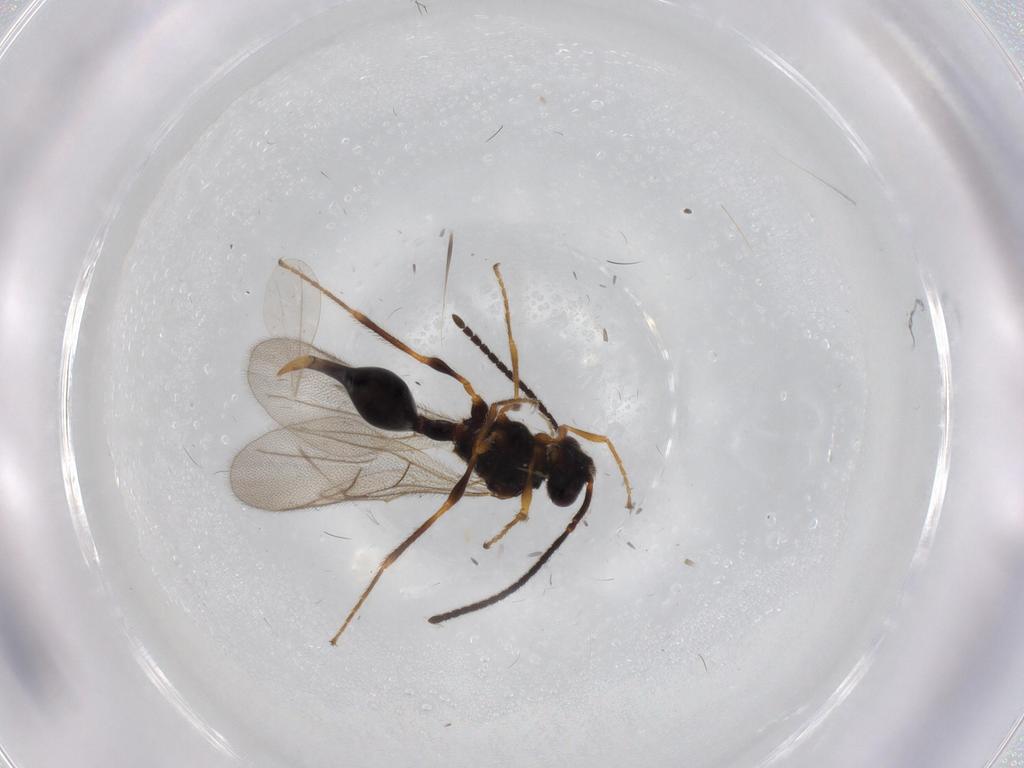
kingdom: Animalia
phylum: Arthropoda
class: Insecta
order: Hymenoptera
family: Diapriidae
